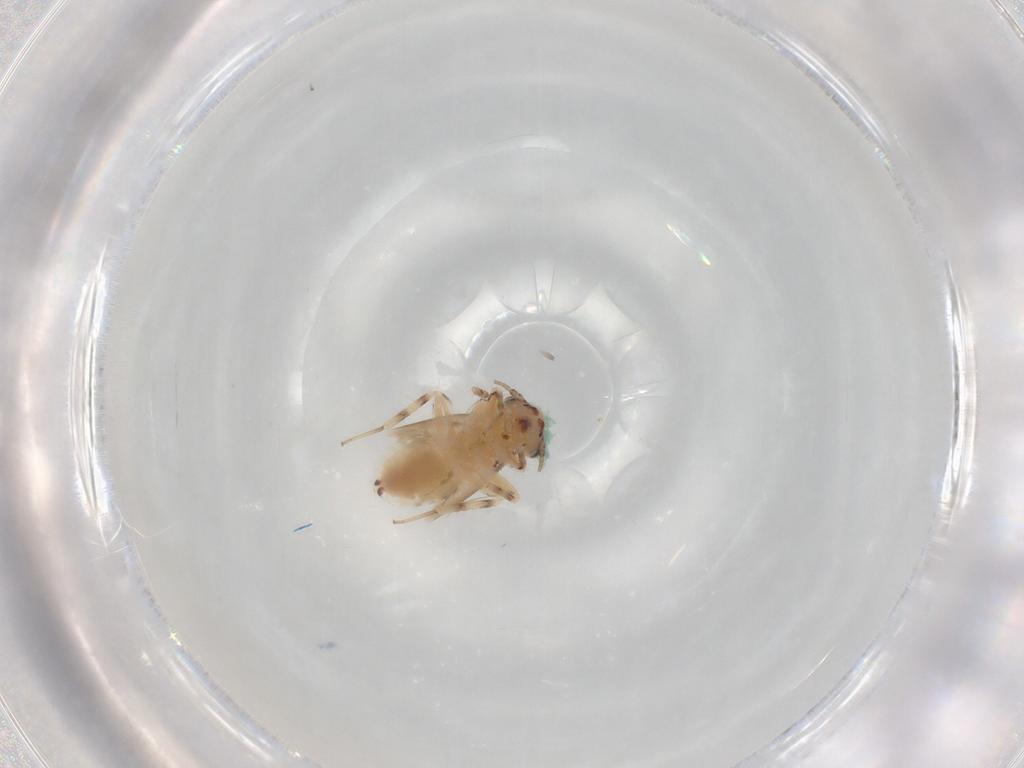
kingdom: Animalia
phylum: Arthropoda
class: Insecta
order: Psocodea
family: Lepidopsocidae
